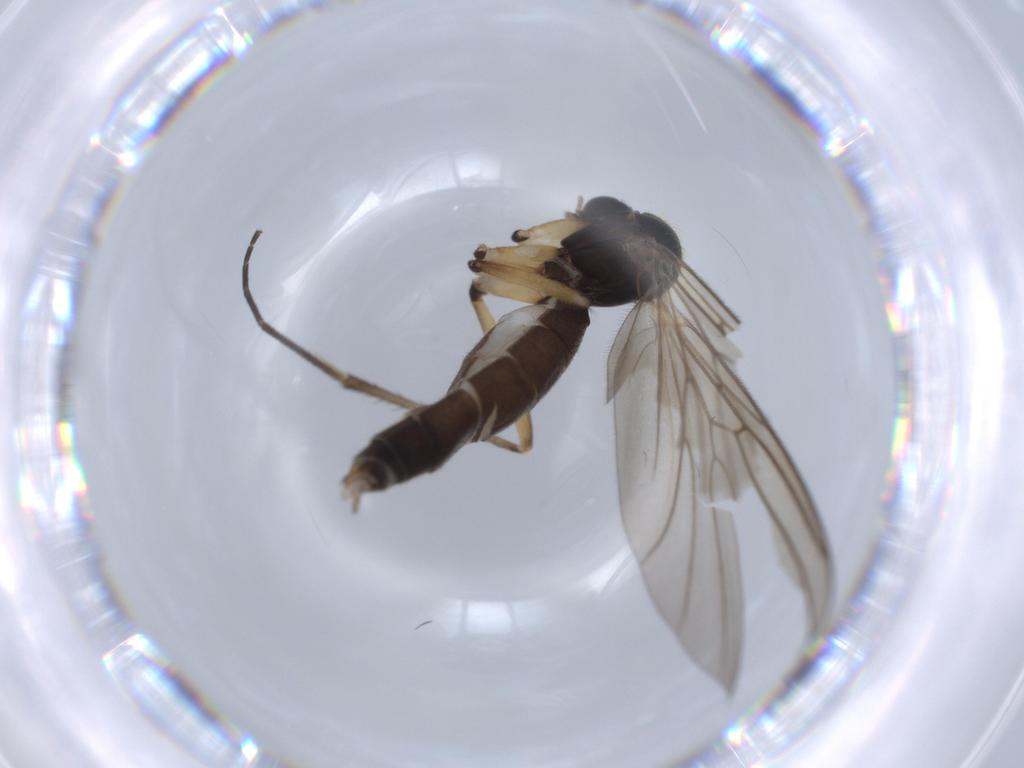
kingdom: Animalia
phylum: Arthropoda
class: Insecta
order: Diptera
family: Mycetophilidae
